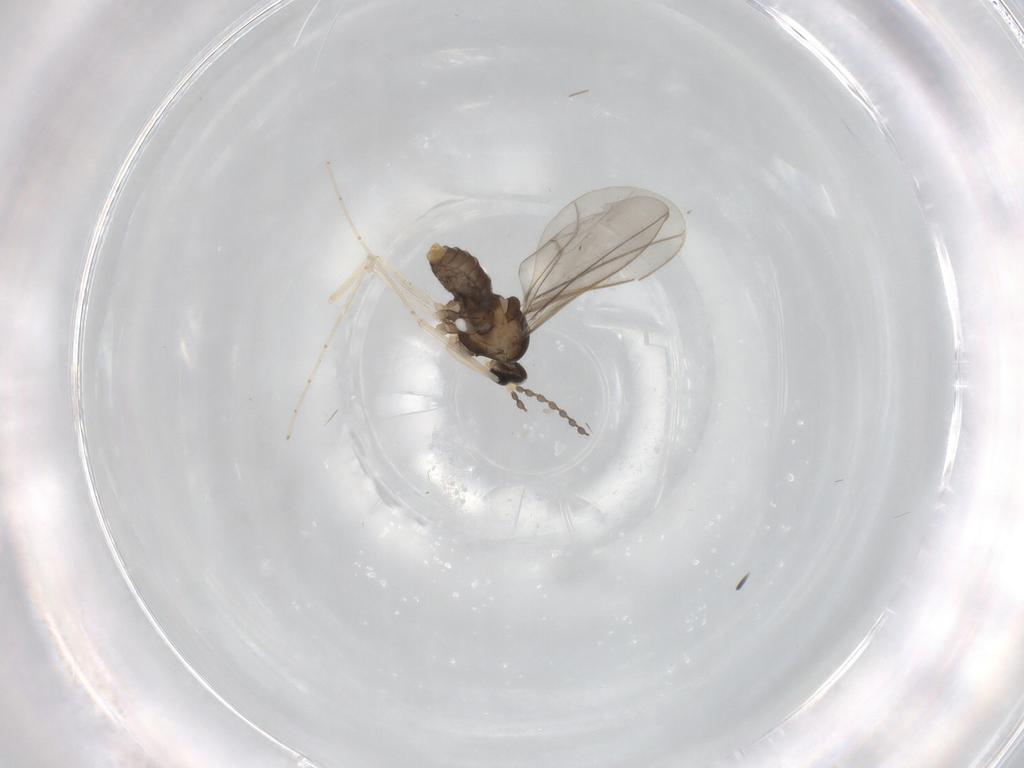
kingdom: Animalia
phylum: Arthropoda
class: Insecta
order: Diptera
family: Cecidomyiidae
